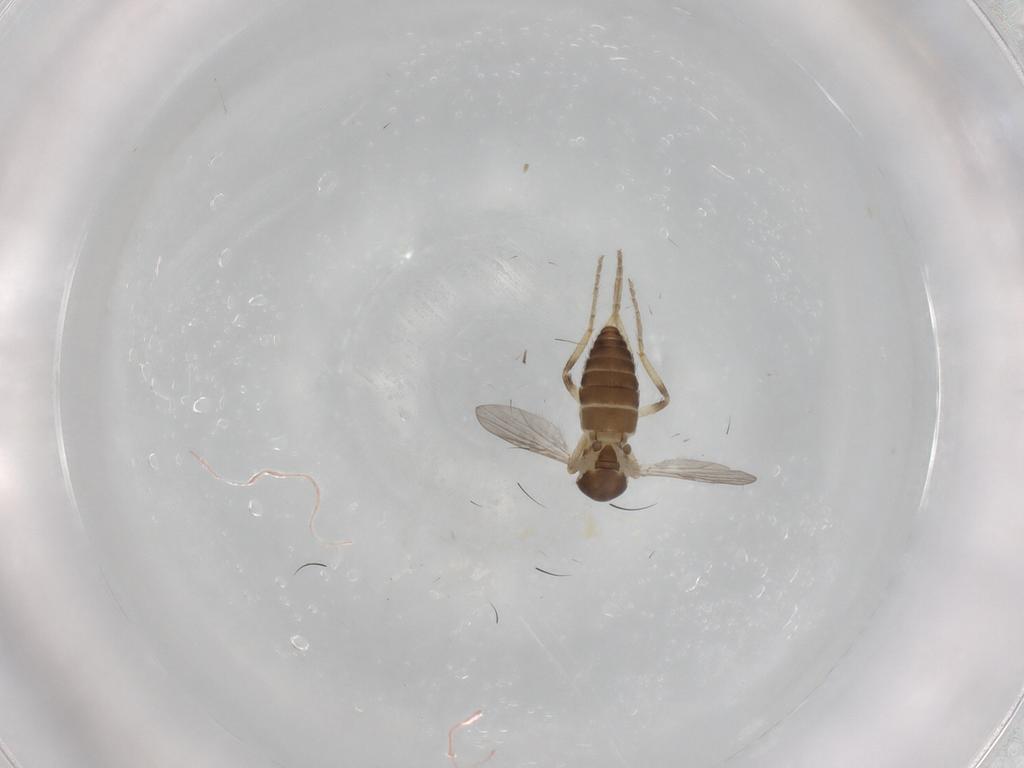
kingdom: Animalia
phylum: Arthropoda
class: Insecta
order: Diptera
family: Ceratopogonidae
